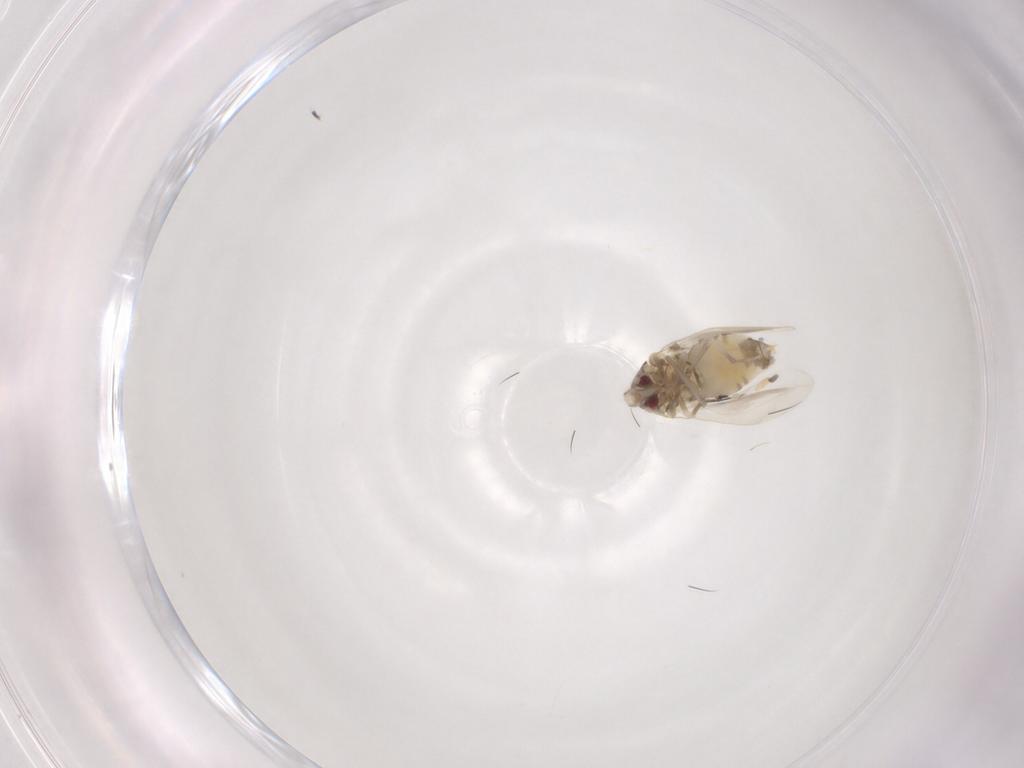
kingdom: Animalia
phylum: Arthropoda
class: Insecta
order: Hemiptera
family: Aleyrodidae
